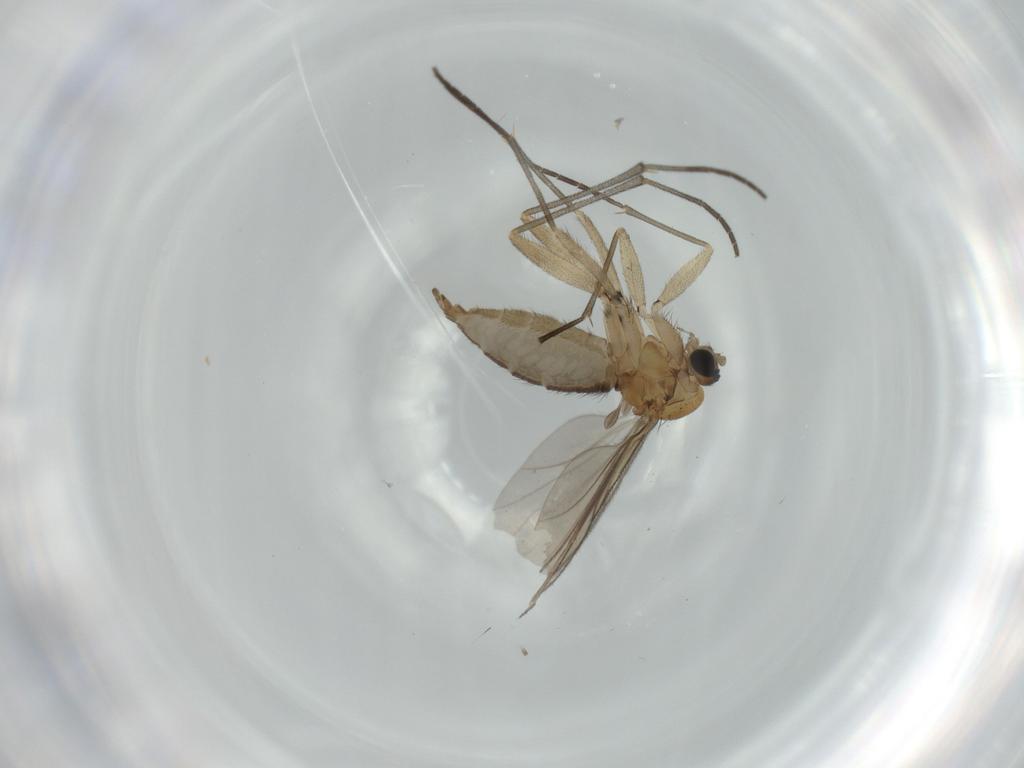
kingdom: Animalia
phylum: Arthropoda
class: Insecta
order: Diptera
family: Sciaridae
